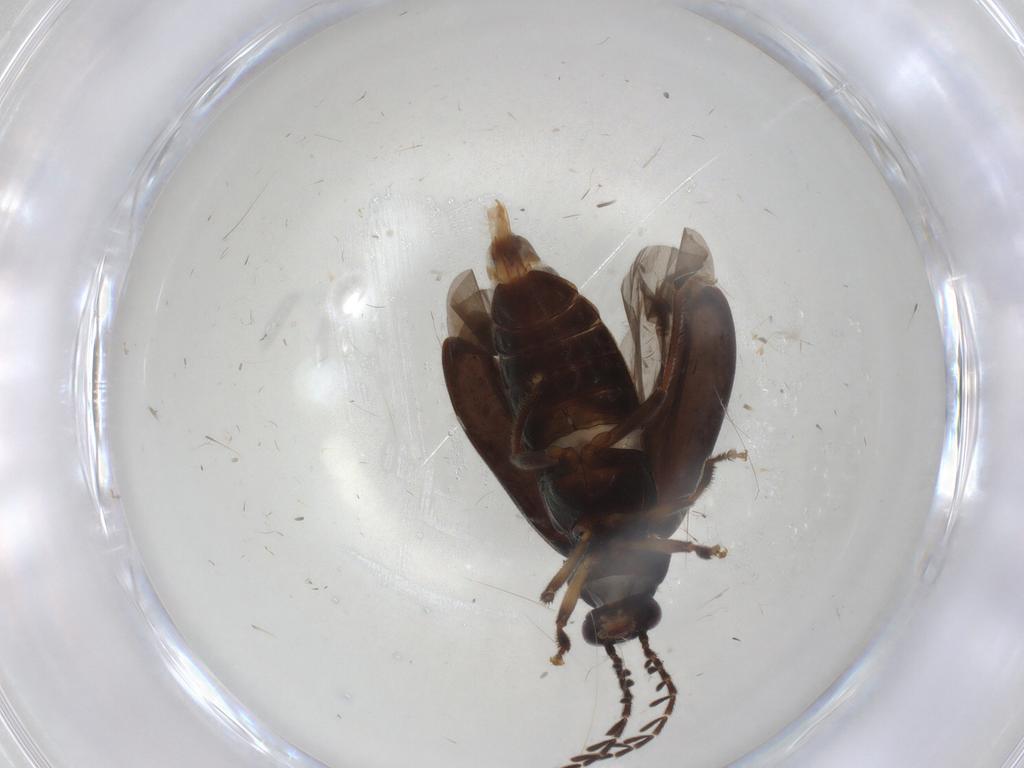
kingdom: Animalia
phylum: Arthropoda
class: Insecta
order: Coleoptera
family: Ptilodactylidae
